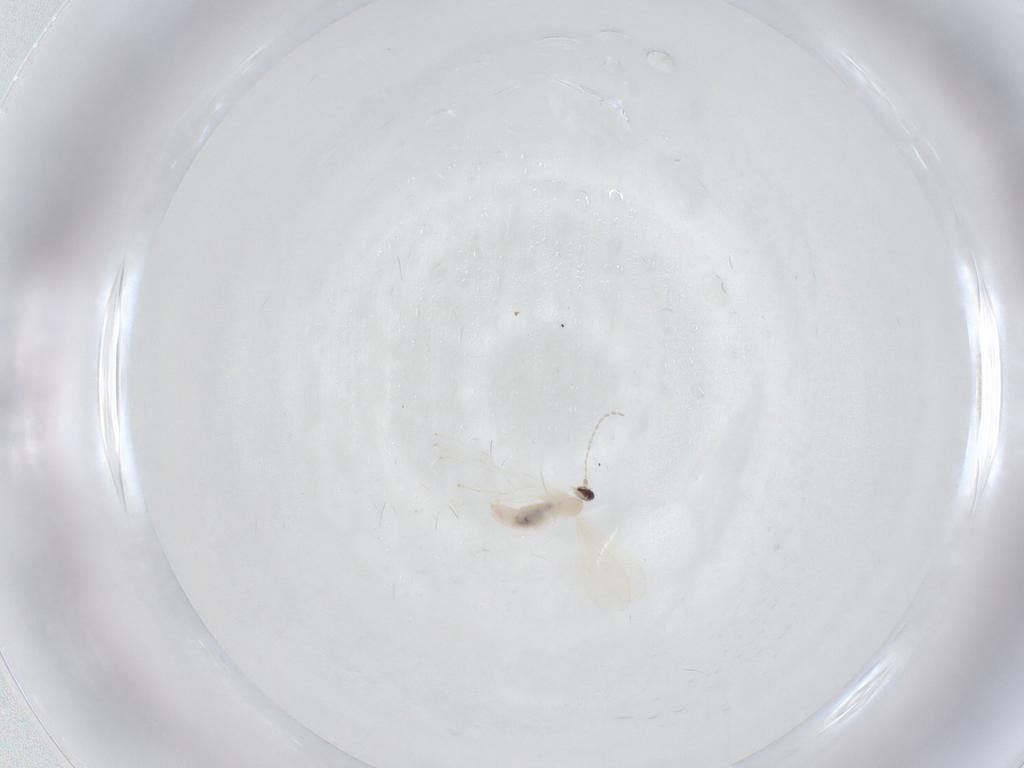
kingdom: Animalia
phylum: Arthropoda
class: Insecta
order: Diptera
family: Cecidomyiidae
